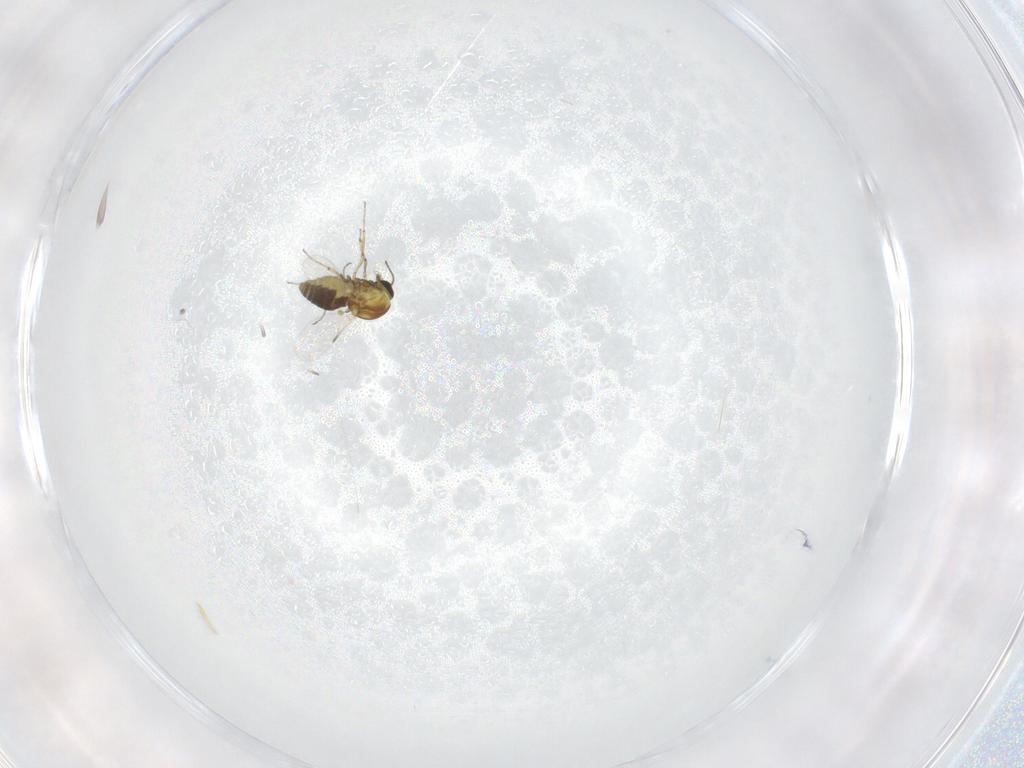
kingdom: Animalia
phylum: Arthropoda
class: Insecta
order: Diptera
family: Ceratopogonidae
